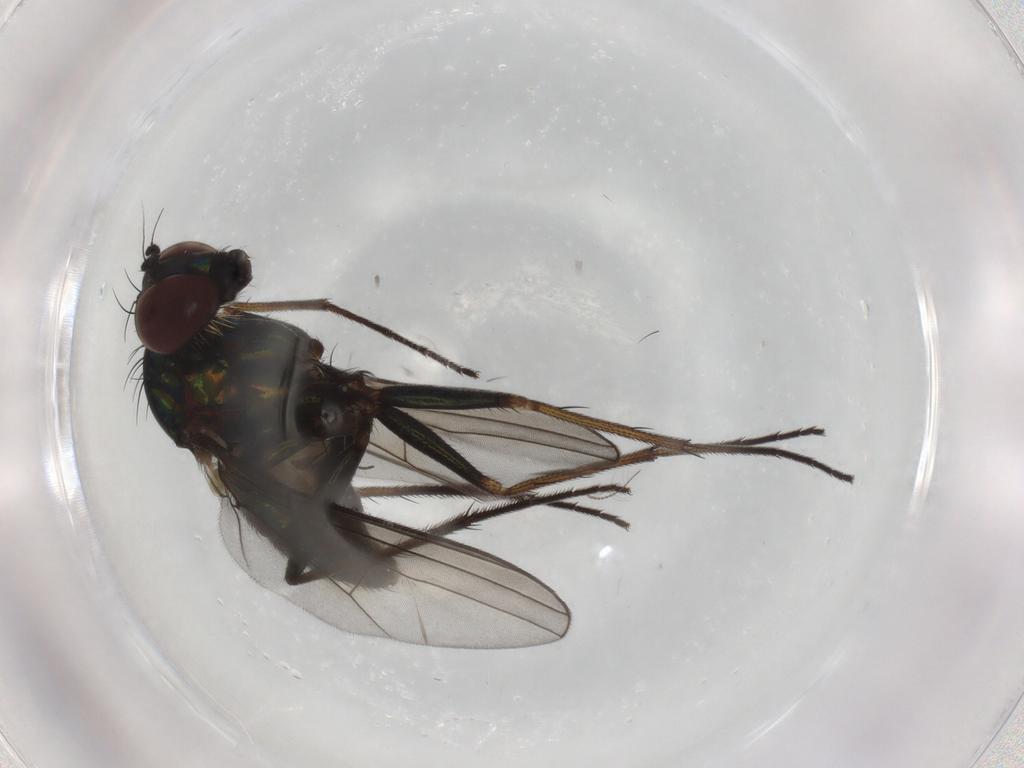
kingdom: Animalia
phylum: Arthropoda
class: Insecta
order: Diptera
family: Dolichopodidae
